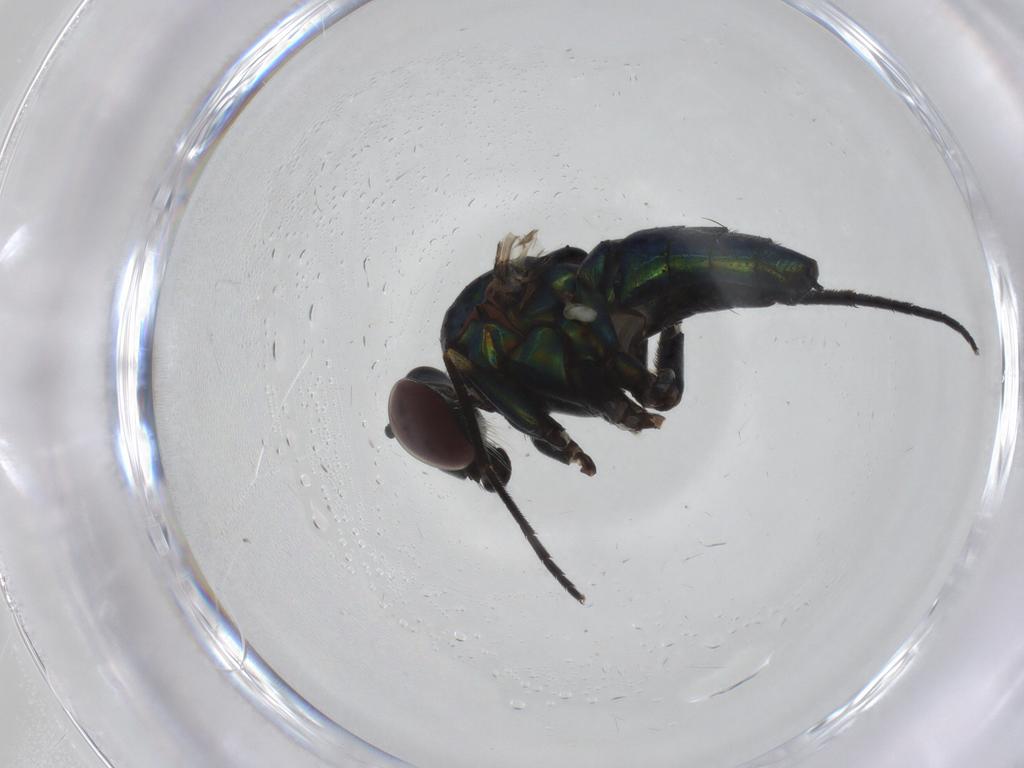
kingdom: Animalia
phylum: Arthropoda
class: Insecta
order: Diptera
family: Dolichopodidae
